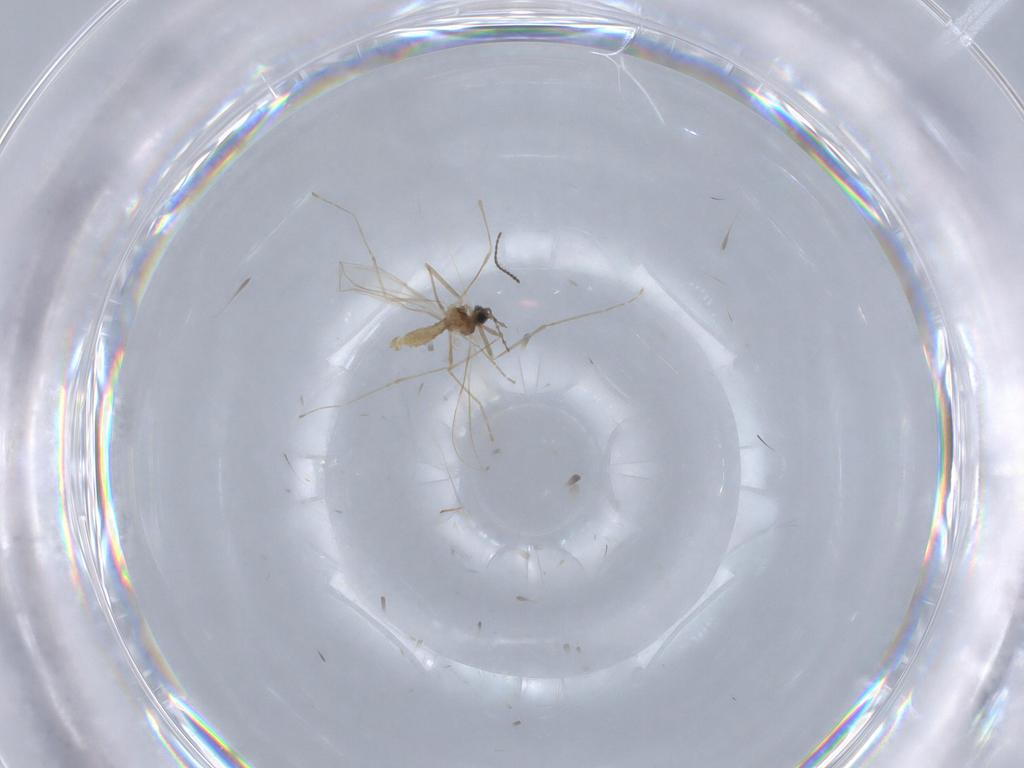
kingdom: Animalia
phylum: Arthropoda
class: Insecta
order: Diptera
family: Cecidomyiidae
